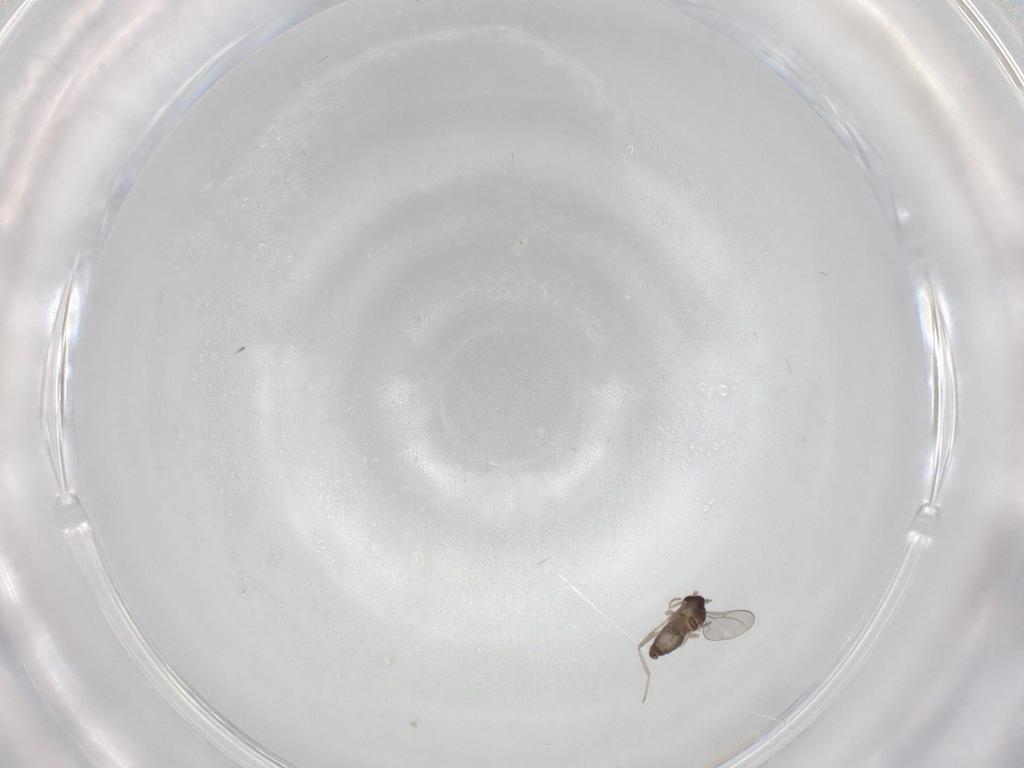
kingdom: Animalia
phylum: Arthropoda
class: Insecta
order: Diptera
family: Cecidomyiidae
